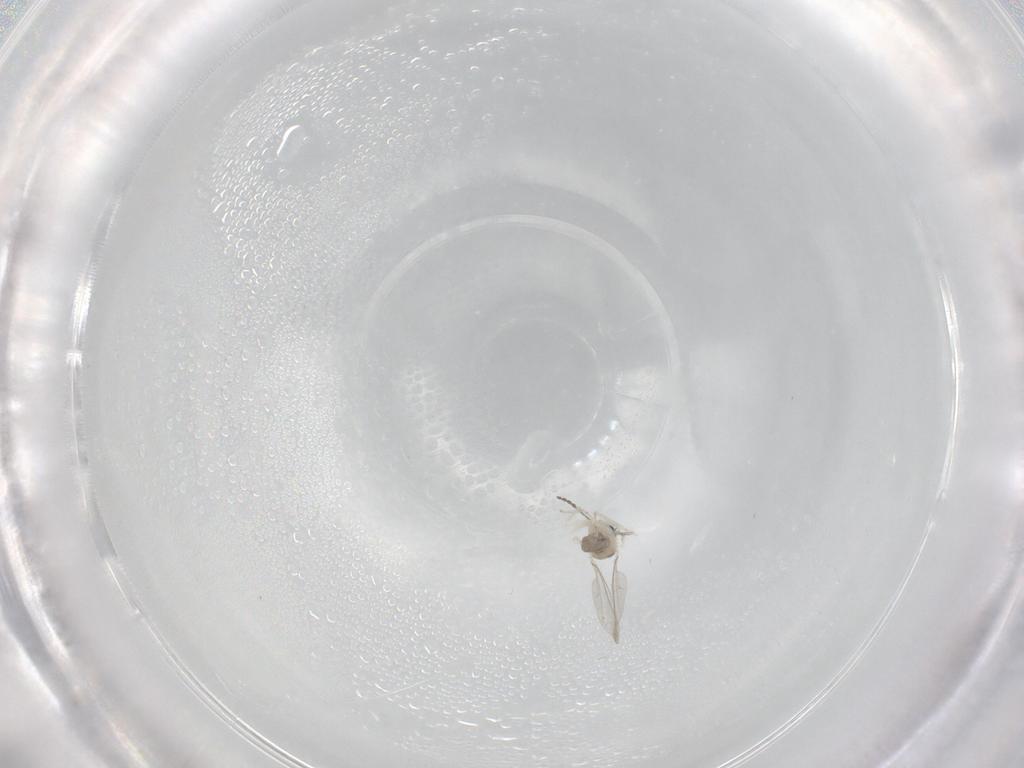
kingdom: Animalia
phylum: Arthropoda
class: Insecta
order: Diptera
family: Cecidomyiidae
